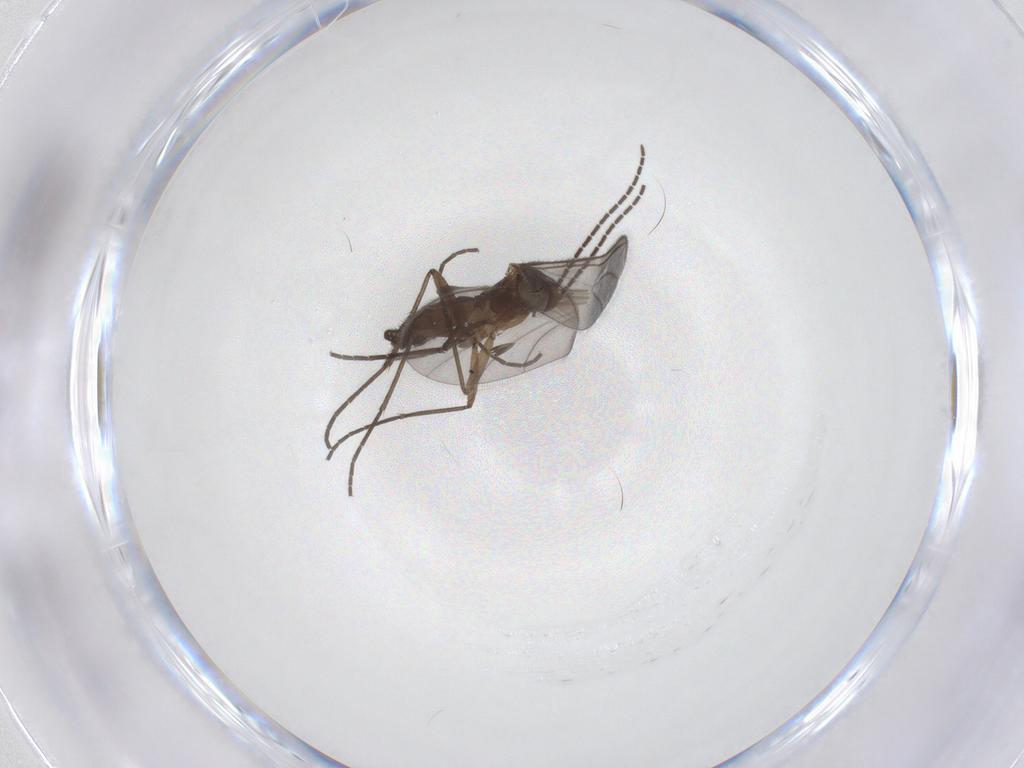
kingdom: Animalia
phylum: Arthropoda
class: Insecta
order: Diptera
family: Sciaridae
